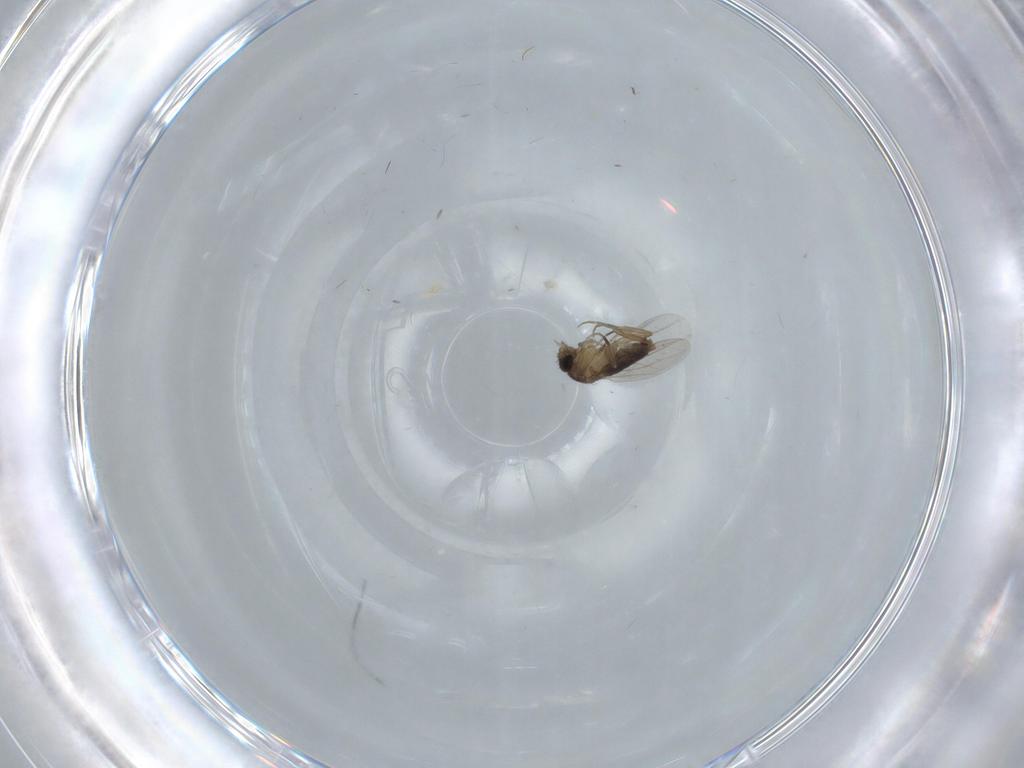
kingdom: Animalia
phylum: Arthropoda
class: Insecta
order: Diptera
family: Phoridae
